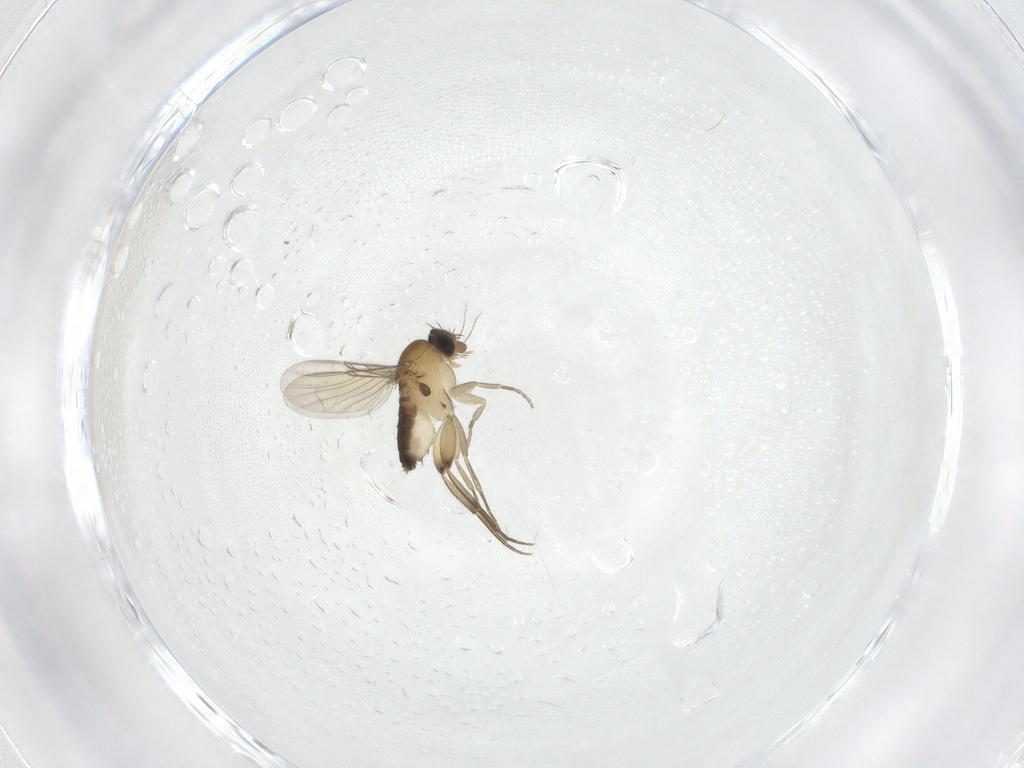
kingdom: Animalia
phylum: Arthropoda
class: Insecta
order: Diptera
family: Phoridae
